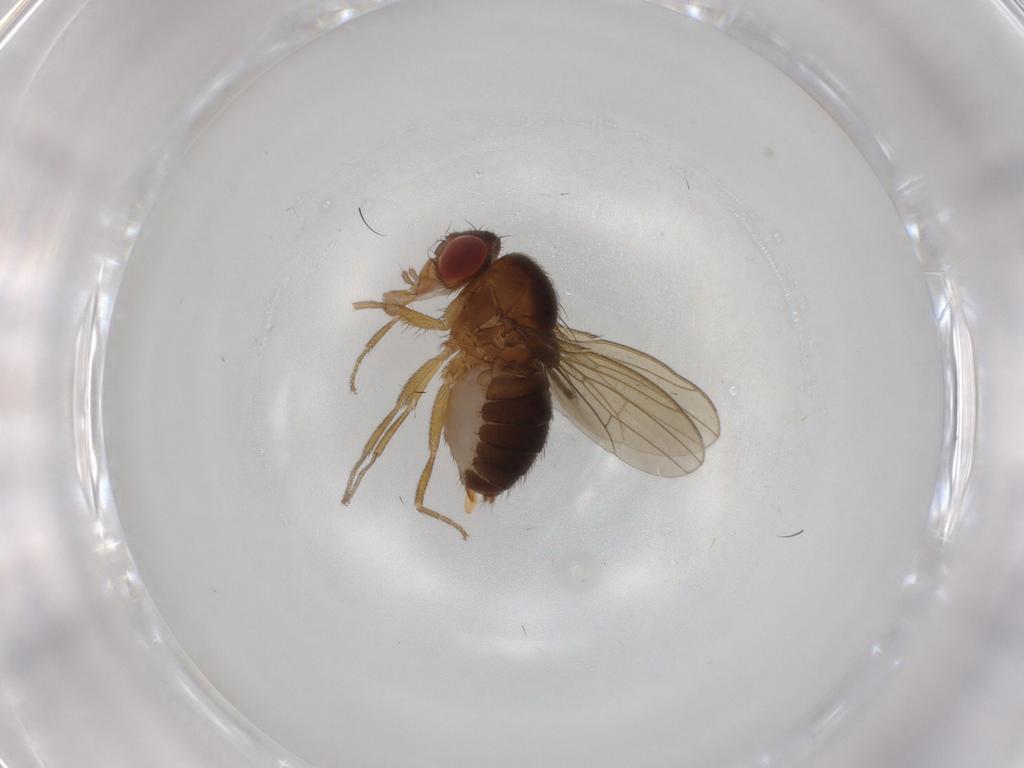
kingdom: Animalia
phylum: Arthropoda
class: Insecta
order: Diptera
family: Drosophilidae
